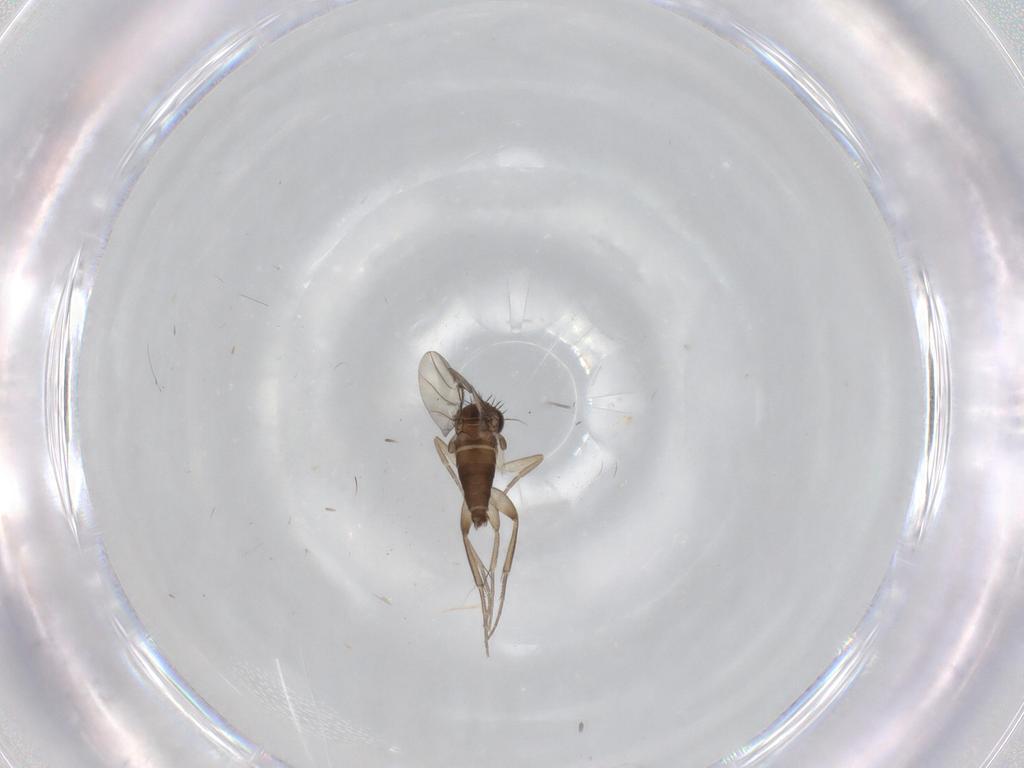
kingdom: Animalia
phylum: Arthropoda
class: Insecta
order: Diptera
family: Phoridae
